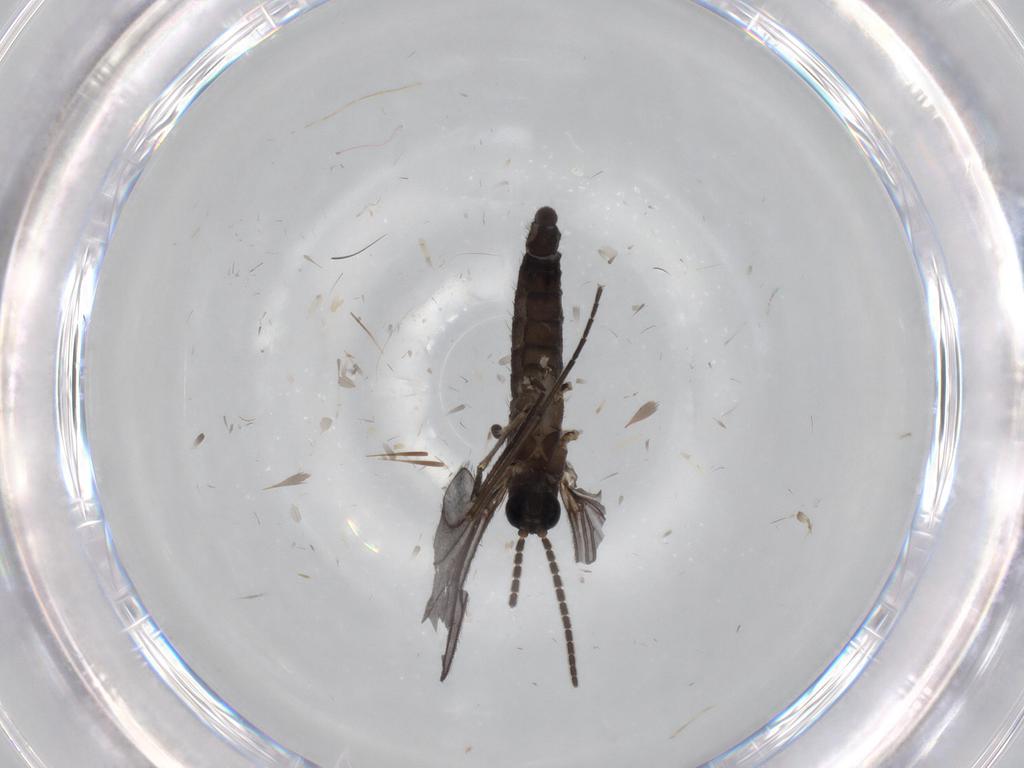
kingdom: Animalia
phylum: Arthropoda
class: Insecta
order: Diptera
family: Sciaridae
